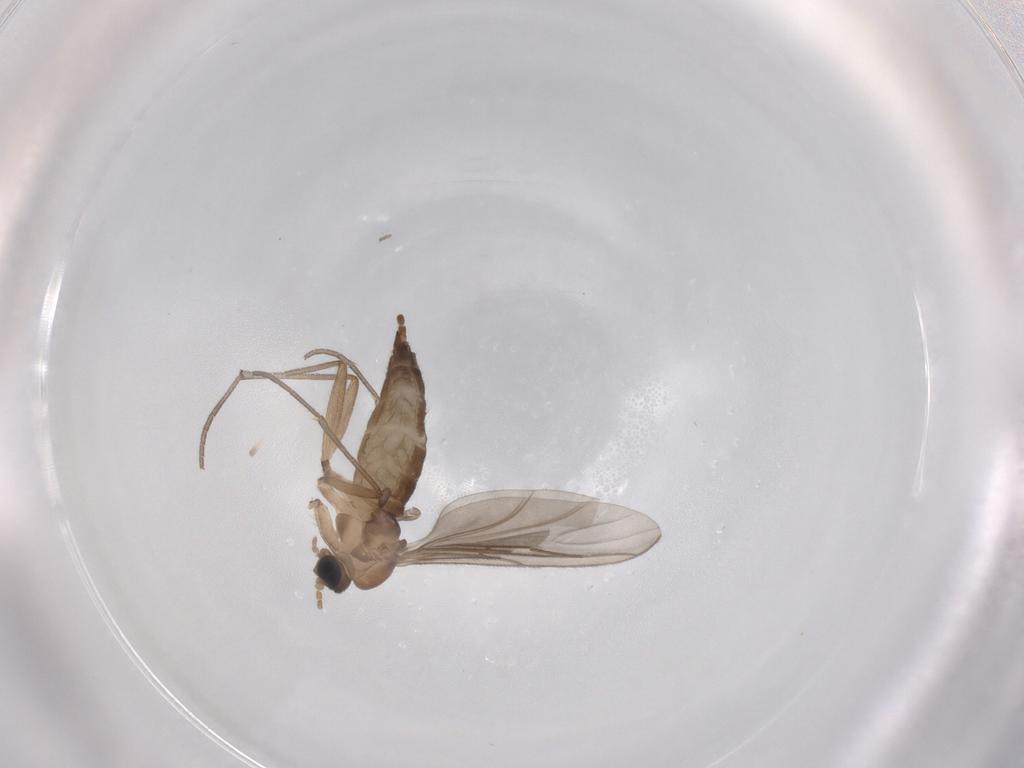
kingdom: Animalia
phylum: Arthropoda
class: Insecta
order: Diptera
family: Sciaridae
